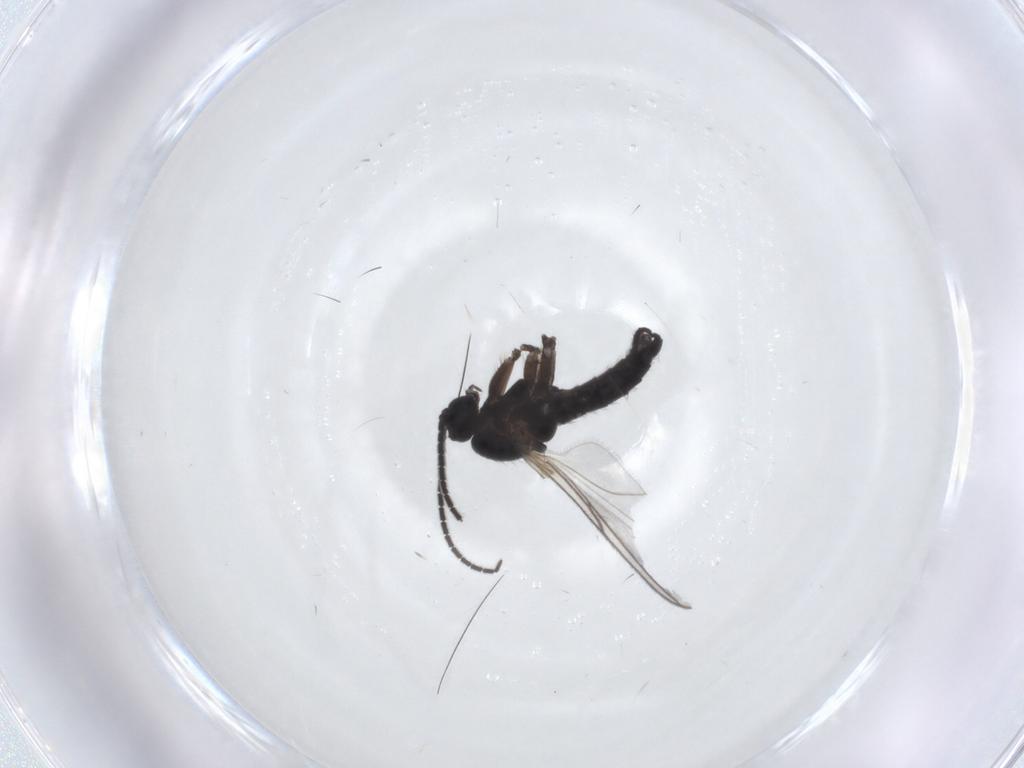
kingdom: Animalia
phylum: Arthropoda
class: Insecta
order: Diptera
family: Sciaridae
